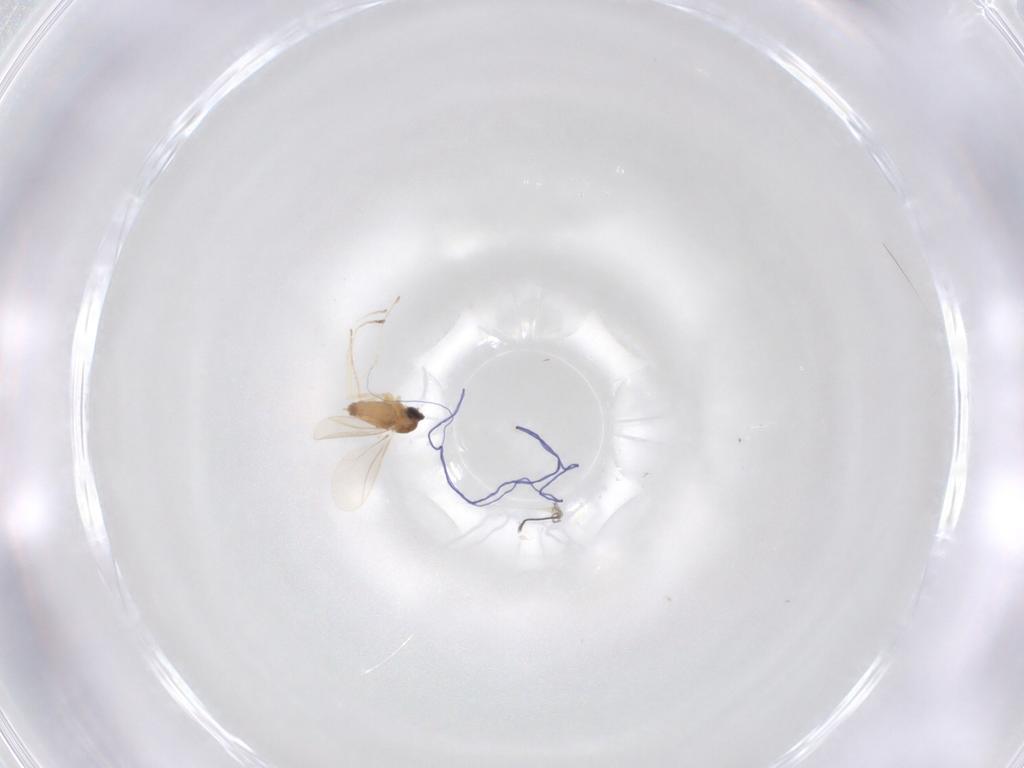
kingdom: Animalia
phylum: Arthropoda
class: Insecta
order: Diptera
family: Cecidomyiidae
